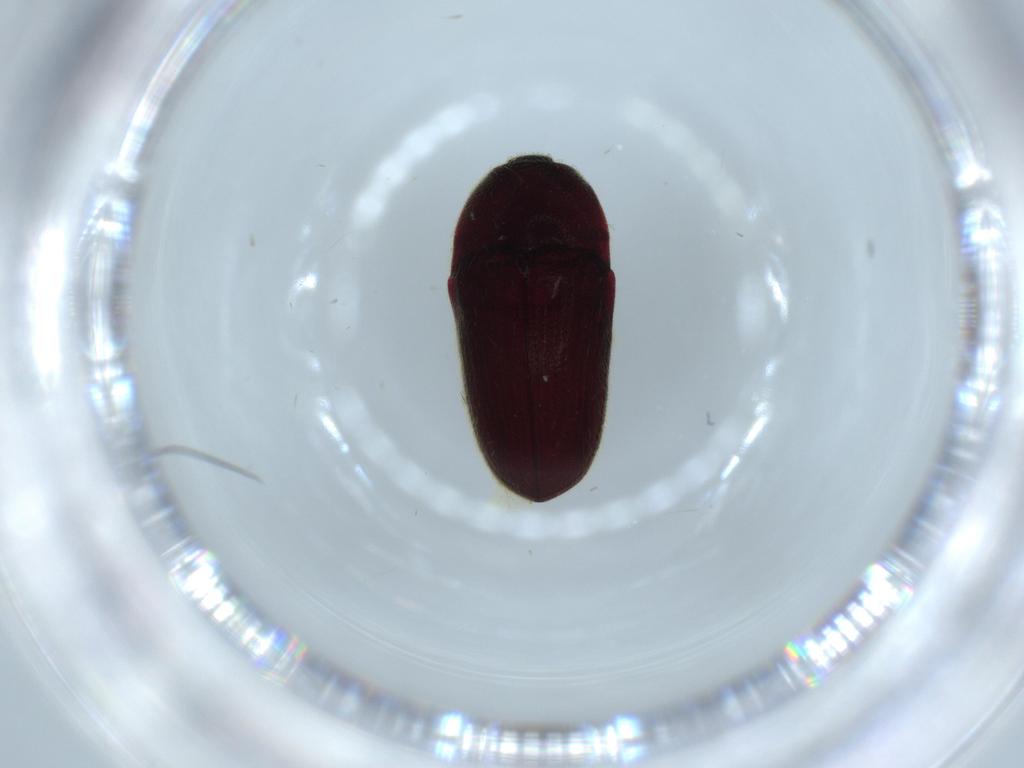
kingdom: Animalia
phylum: Arthropoda
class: Insecta
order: Coleoptera
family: Throscidae
